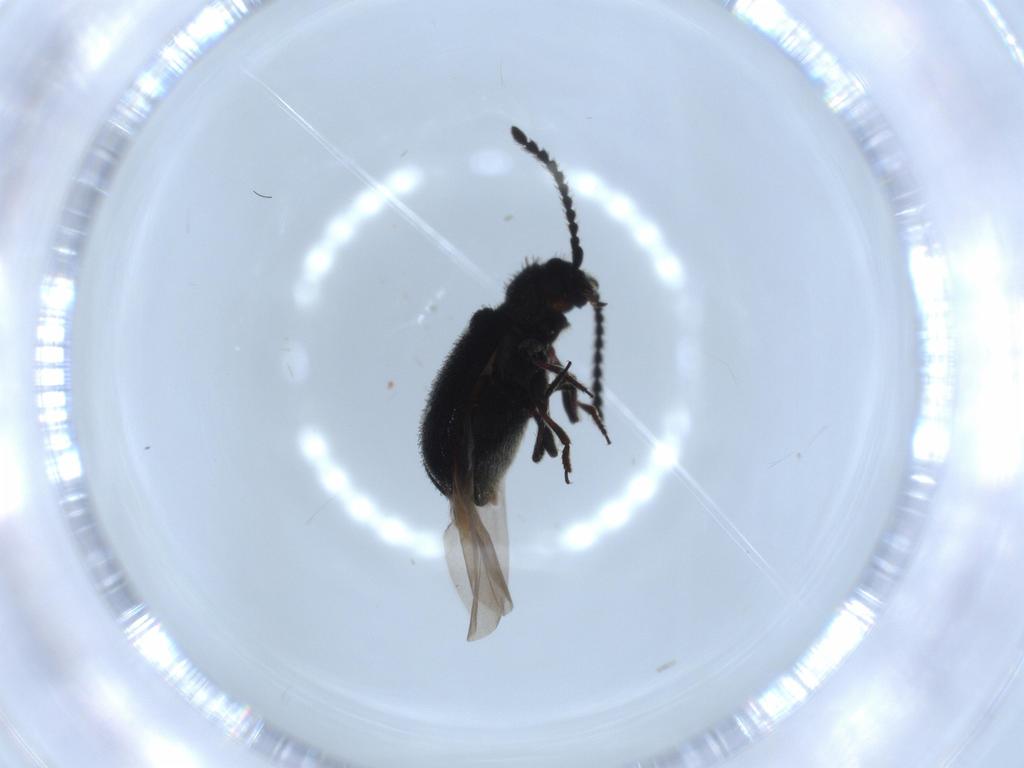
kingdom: Animalia
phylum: Arthropoda
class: Insecta
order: Coleoptera
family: Ptinidae
